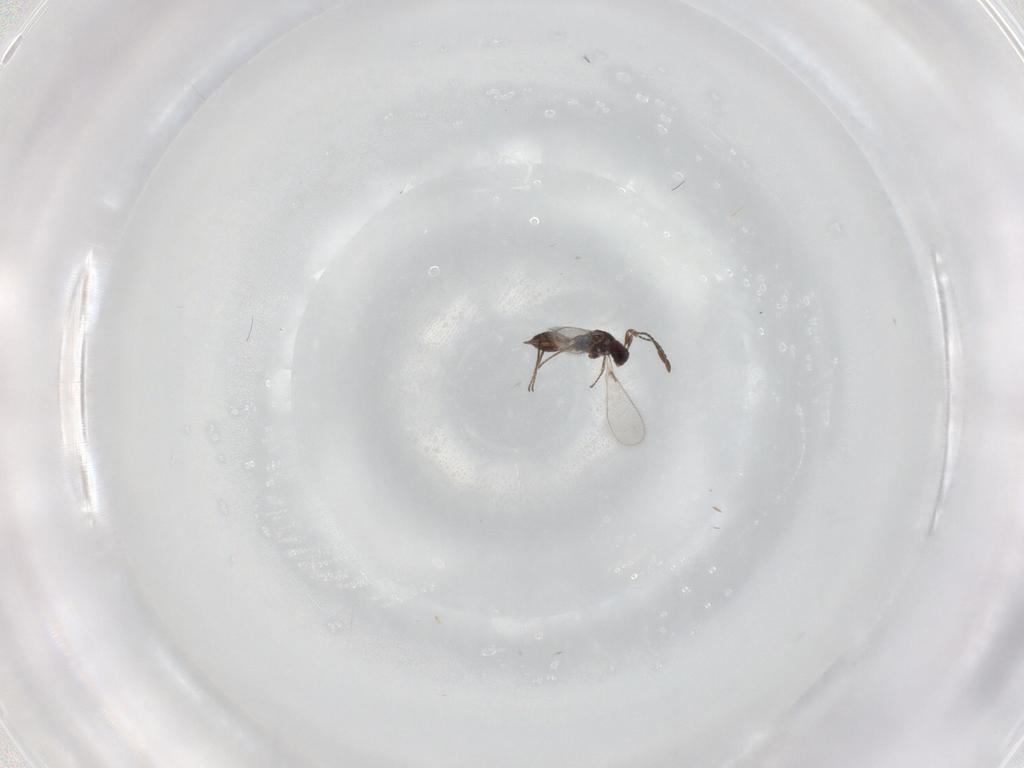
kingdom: Animalia
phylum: Arthropoda
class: Insecta
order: Hymenoptera
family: Mymaridae
